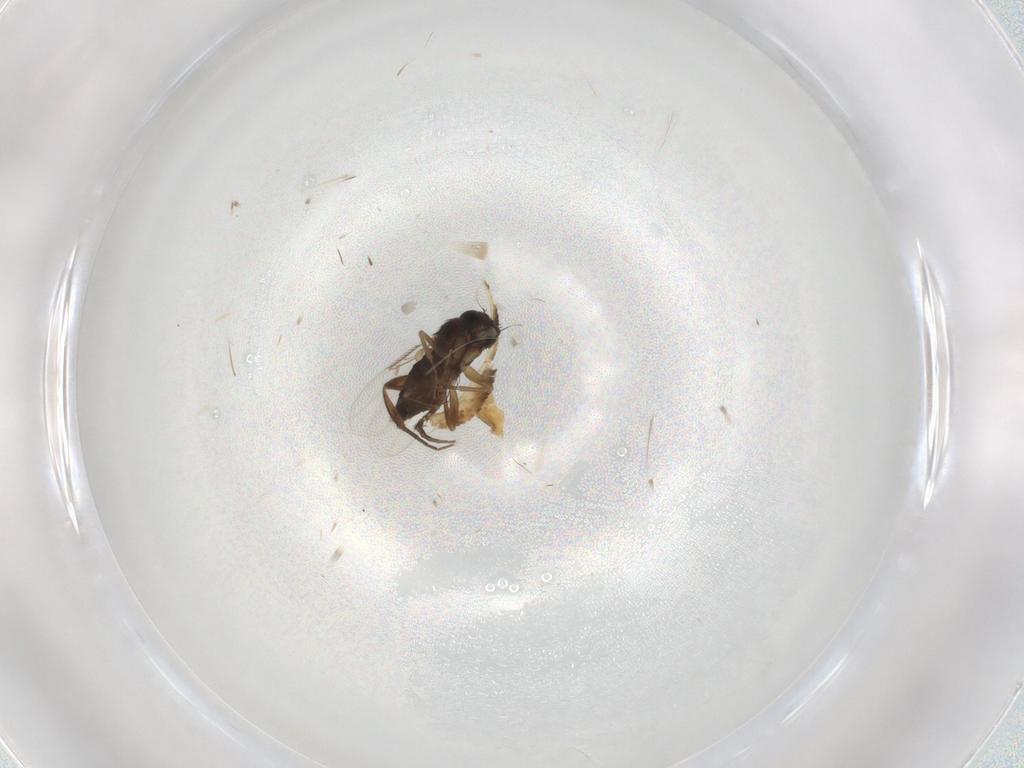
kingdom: Animalia
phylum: Arthropoda
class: Insecta
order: Diptera
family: Phoridae
